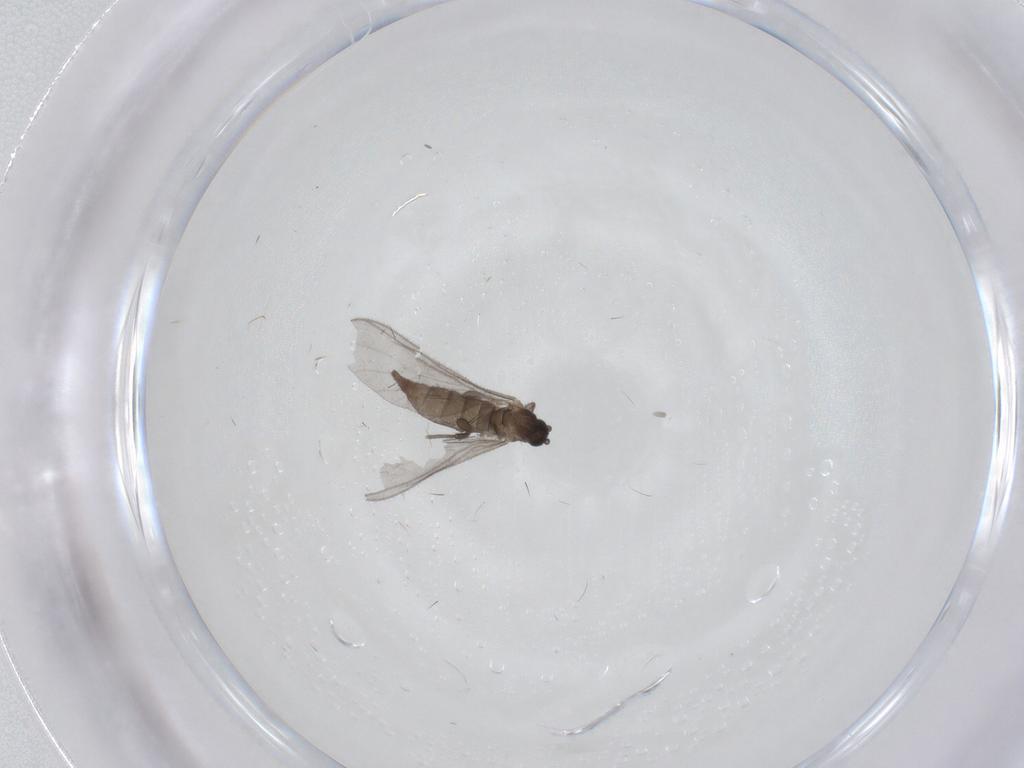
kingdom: Animalia
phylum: Arthropoda
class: Insecta
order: Diptera
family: Sciaridae
